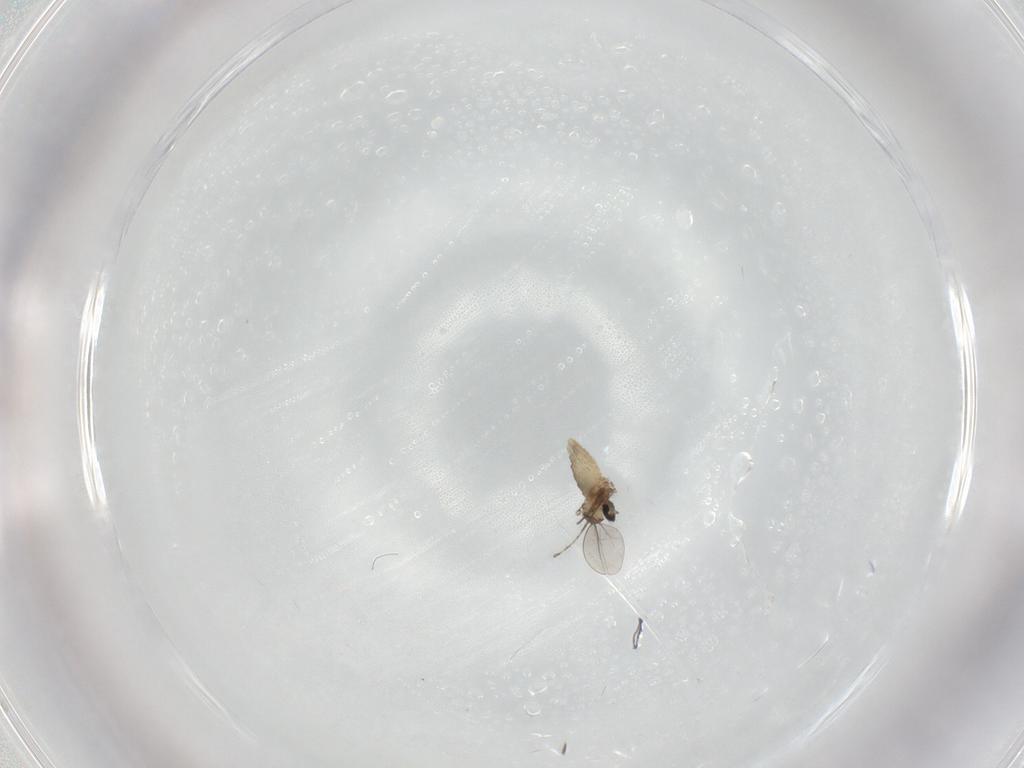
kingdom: Animalia
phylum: Arthropoda
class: Insecta
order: Diptera
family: Cecidomyiidae
